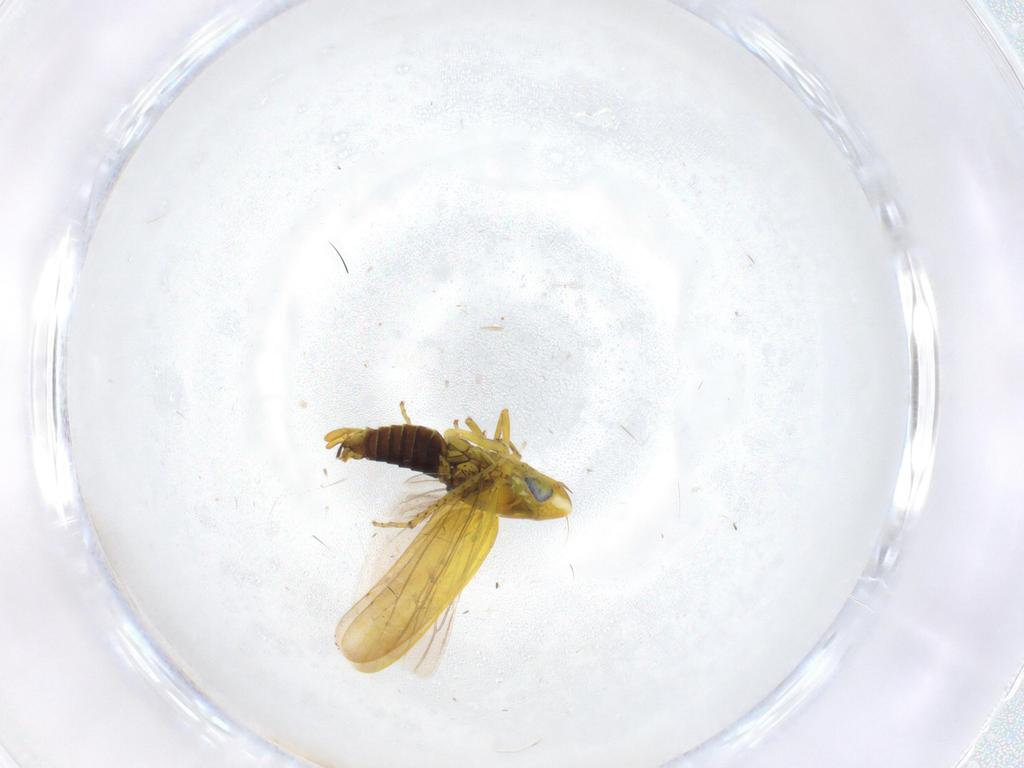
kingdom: Animalia
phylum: Arthropoda
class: Insecta
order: Hemiptera
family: Cicadellidae
